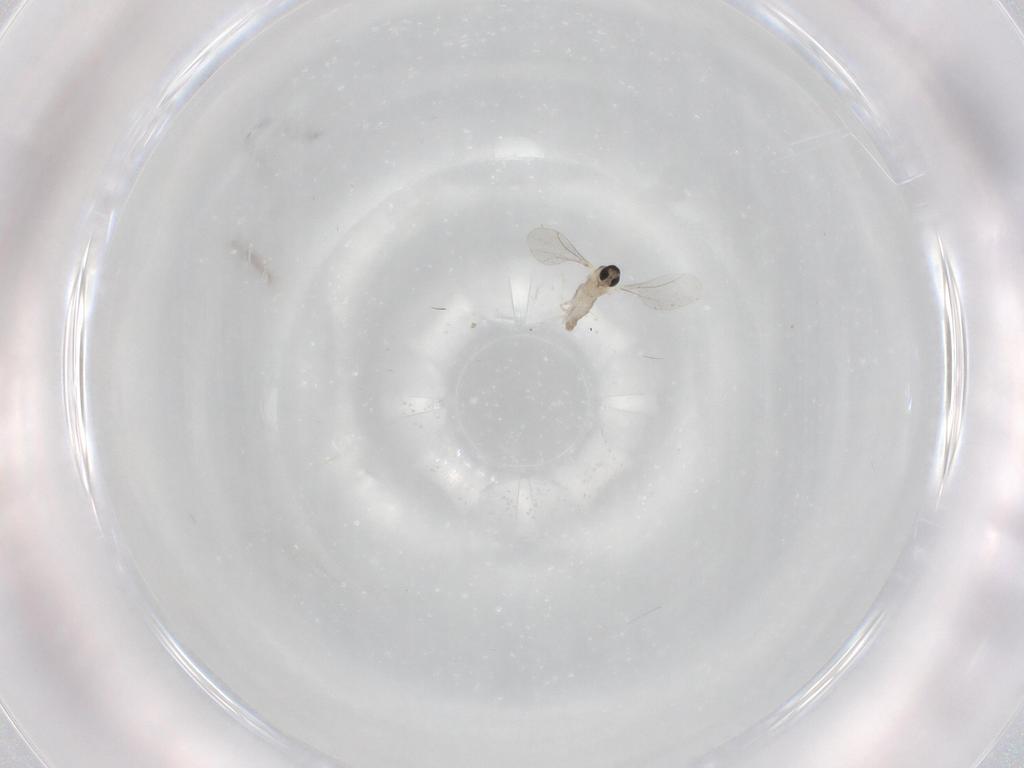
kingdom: Animalia
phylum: Arthropoda
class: Insecta
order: Diptera
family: Cecidomyiidae
